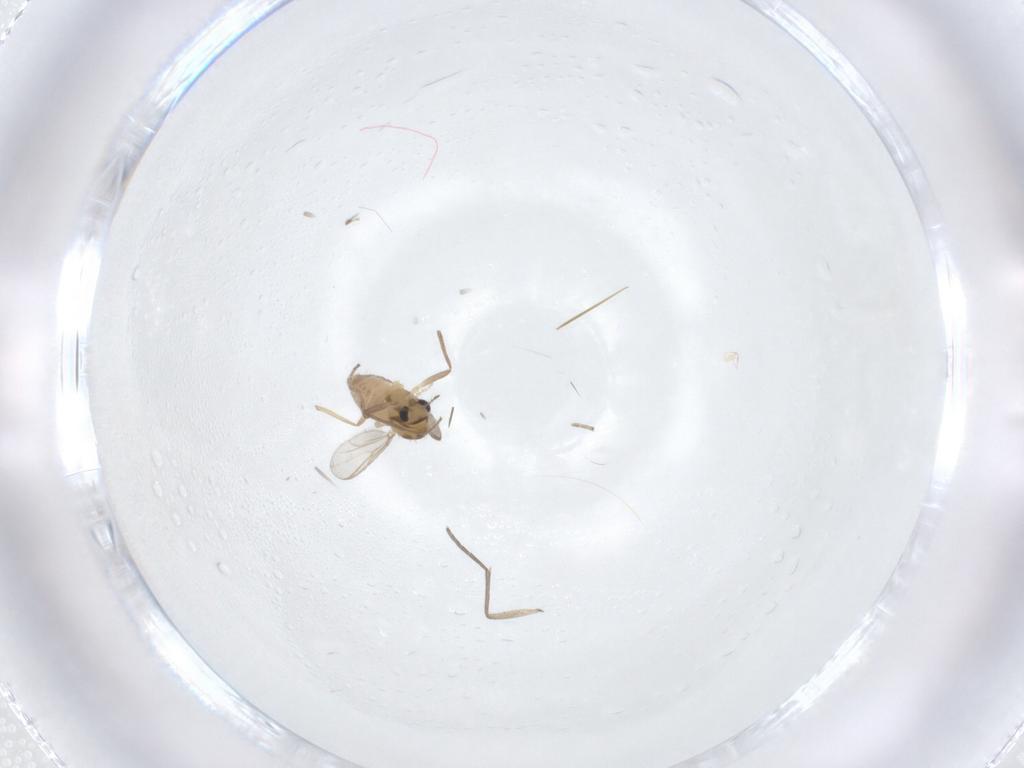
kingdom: Animalia
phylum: Arthropoda
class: Insecta
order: Diptera
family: Chironomidae
